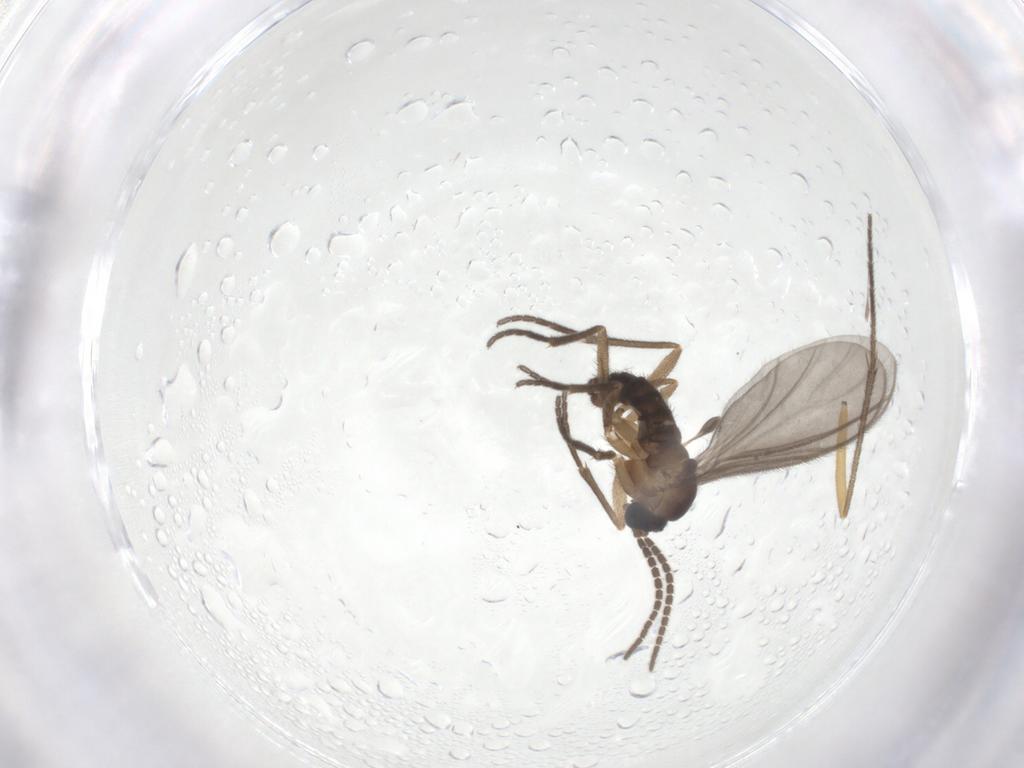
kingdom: Animalia
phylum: Arthropoda
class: Insecta
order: Diptera
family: Sciaridae
